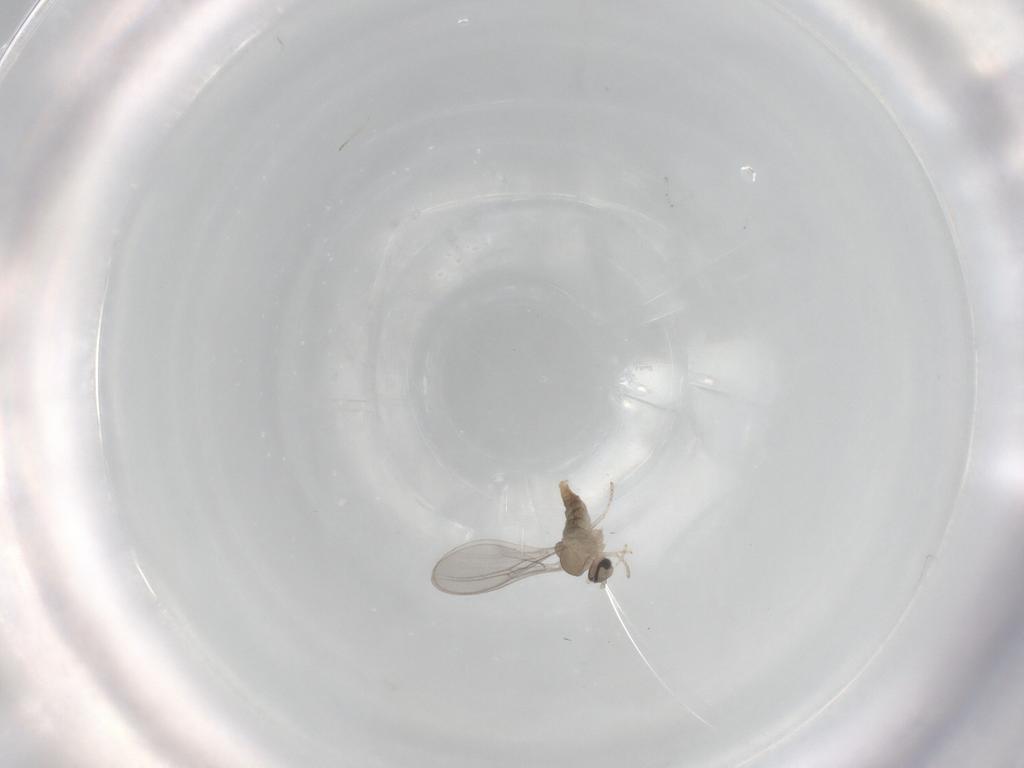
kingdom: Animalia
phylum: Arthropoda
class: Insecta
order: Diptera
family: Cecidomyiidae
